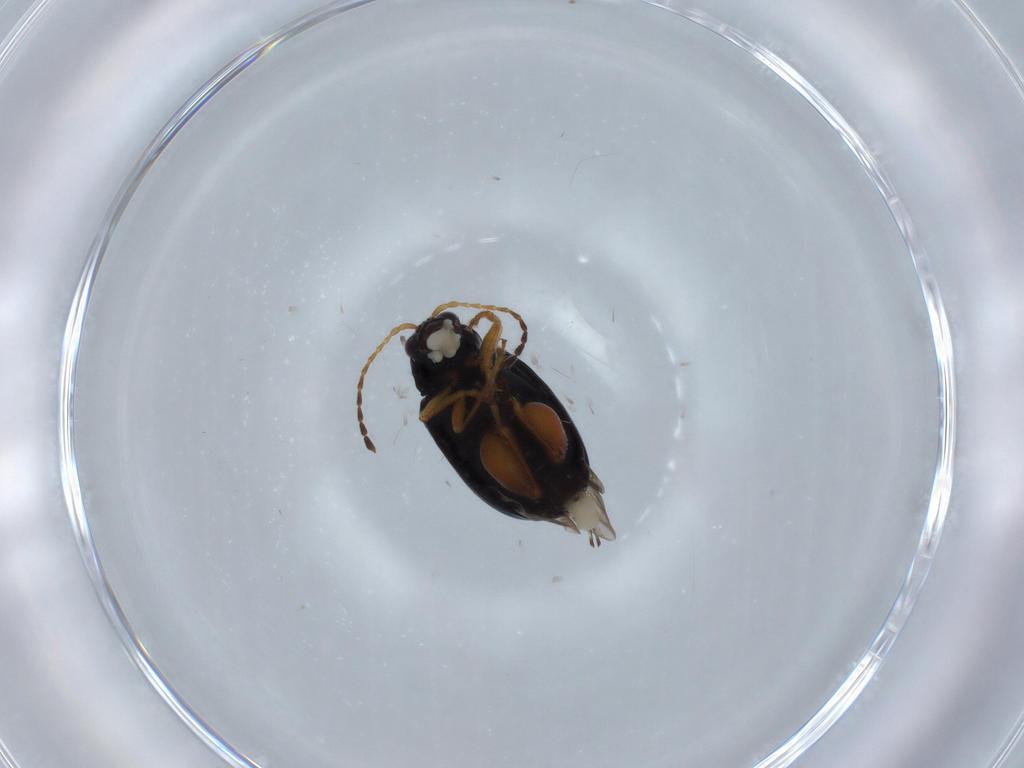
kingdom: Animalia
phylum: Arthropoda
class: Insecta
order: Coleoptera
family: Chrysomelidae
